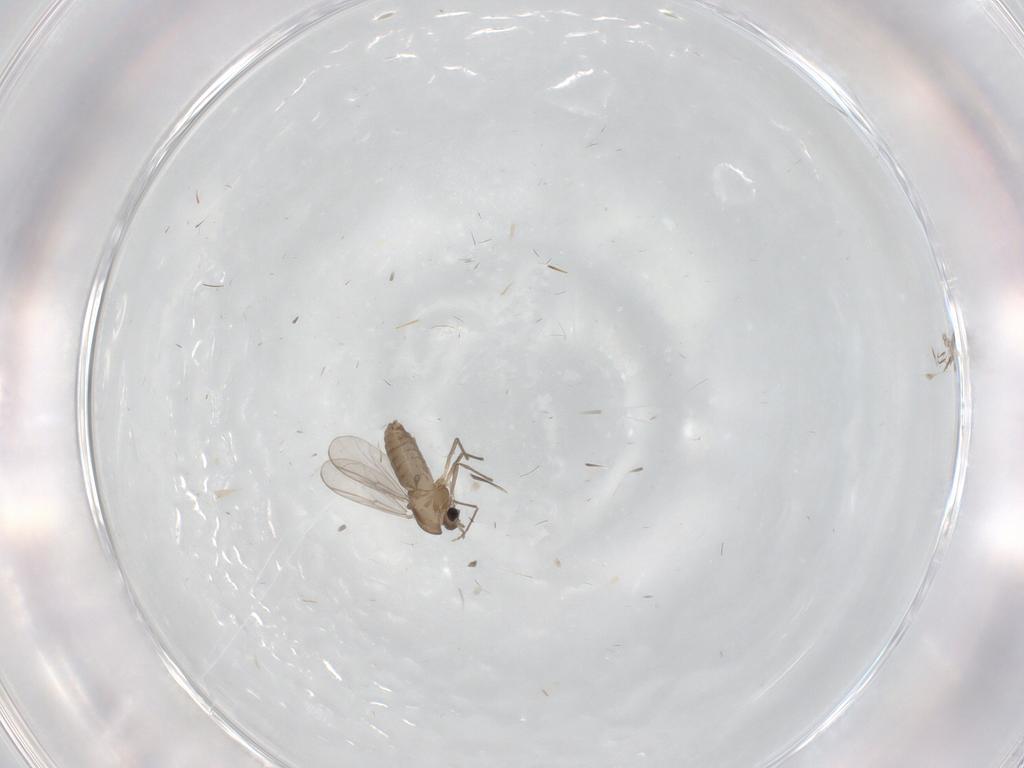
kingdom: Animalia
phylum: Arthropoda
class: Insecta
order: Diptera
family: Chironomidae
